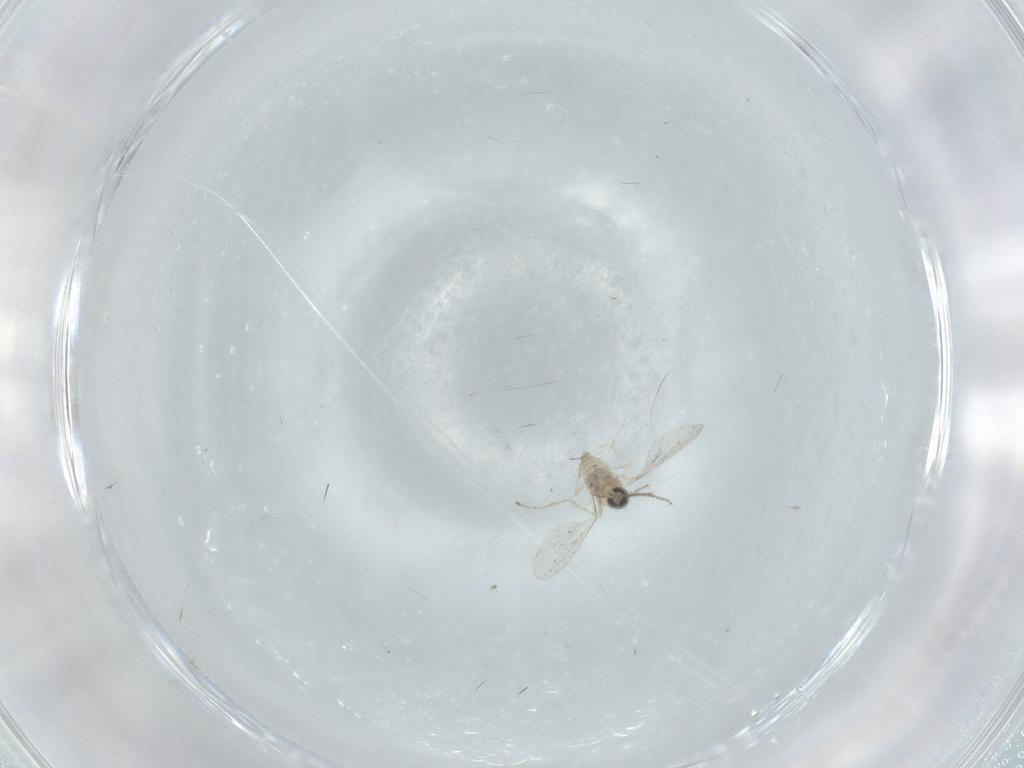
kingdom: Animalia
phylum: Arthropoda
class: Insecta
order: Diptera
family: Cecidomyiidae
